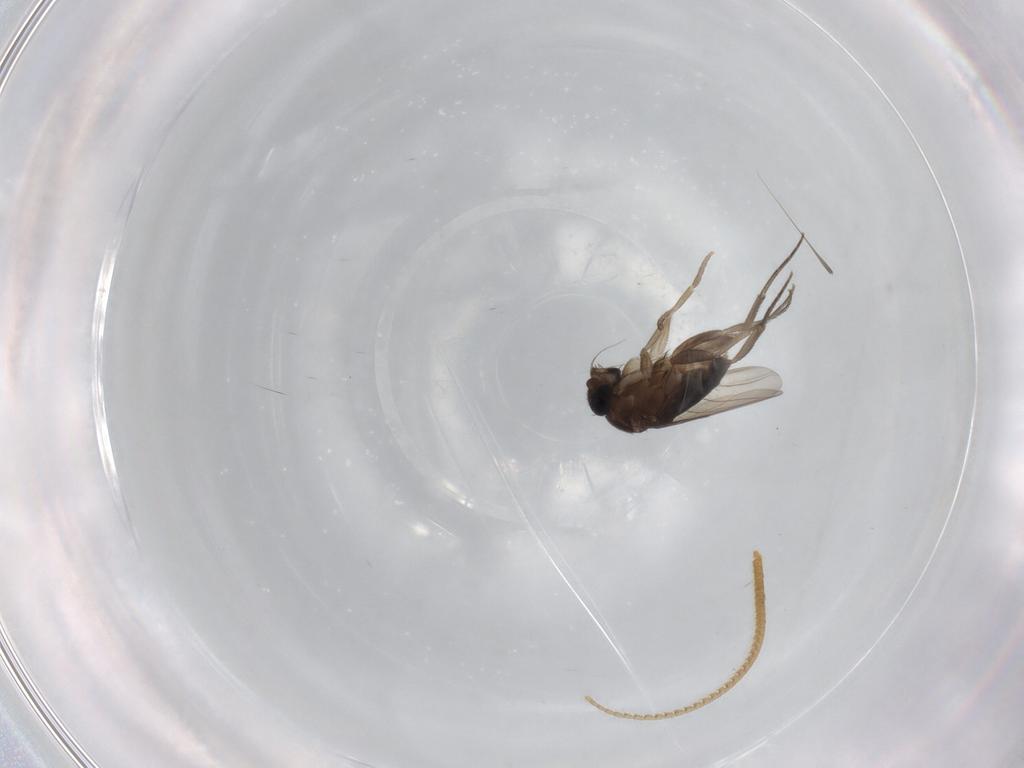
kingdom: Animalia
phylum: Arthropoda
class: Insecta
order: Diptera
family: Phoridae
